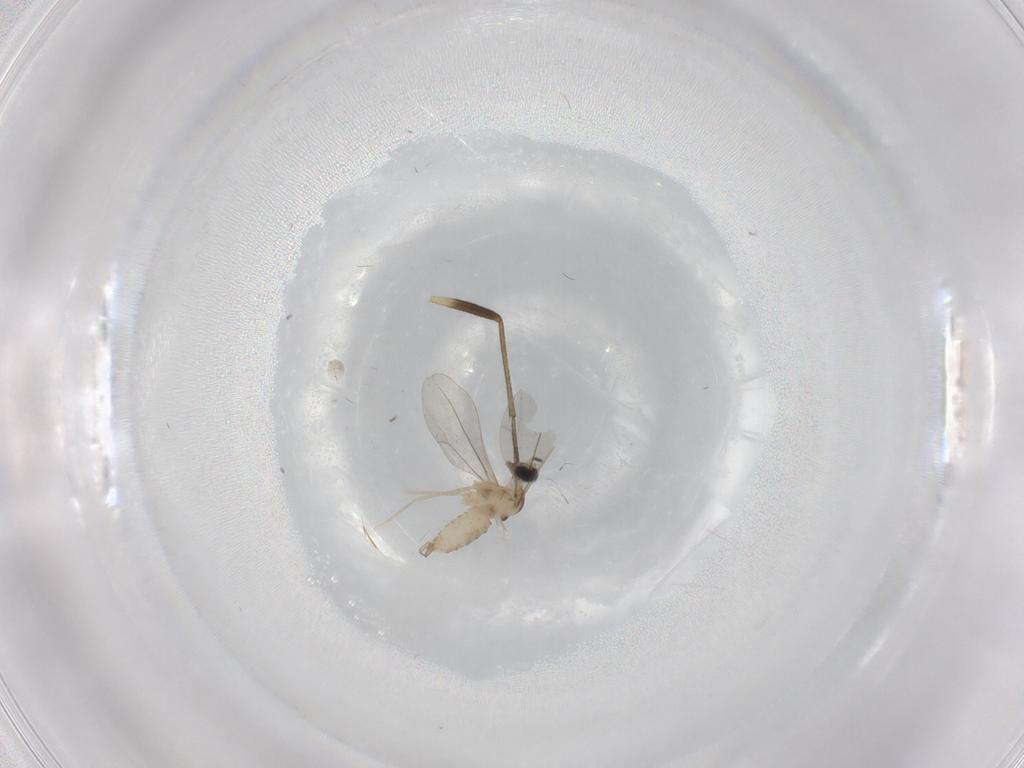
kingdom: Animalia
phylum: Arthropoda
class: Insecta
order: Diptera
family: Cecidomyiidae
